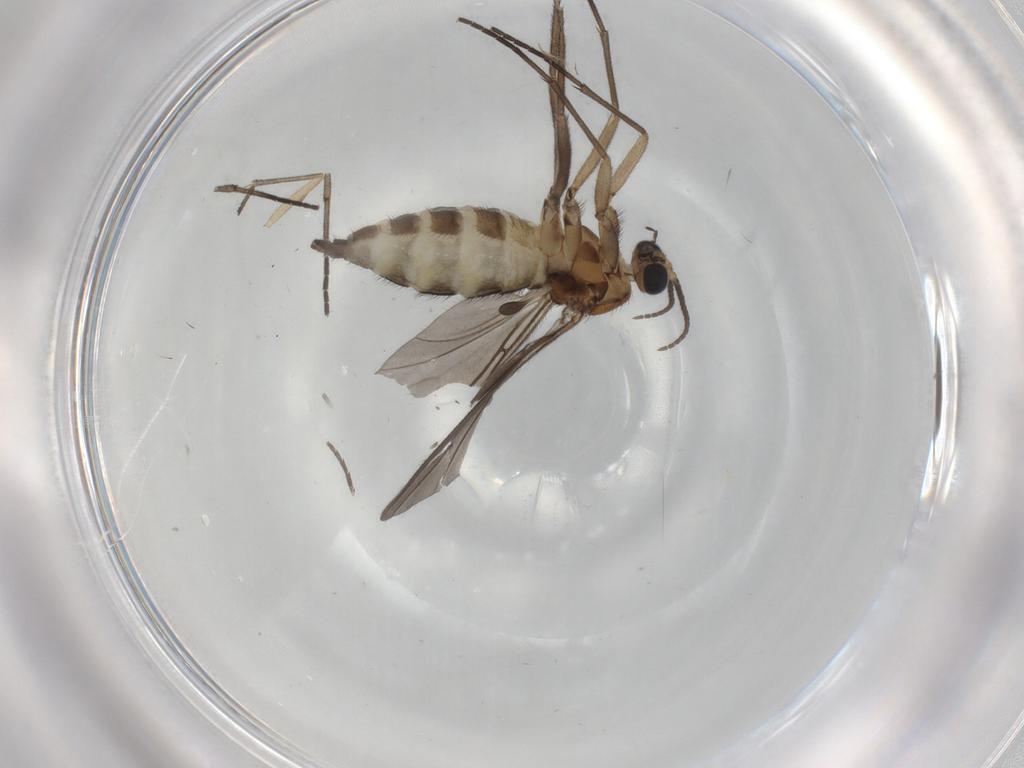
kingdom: Animalia
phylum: Arthropoda
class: Insecta
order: Diptera
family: Sciaridae
